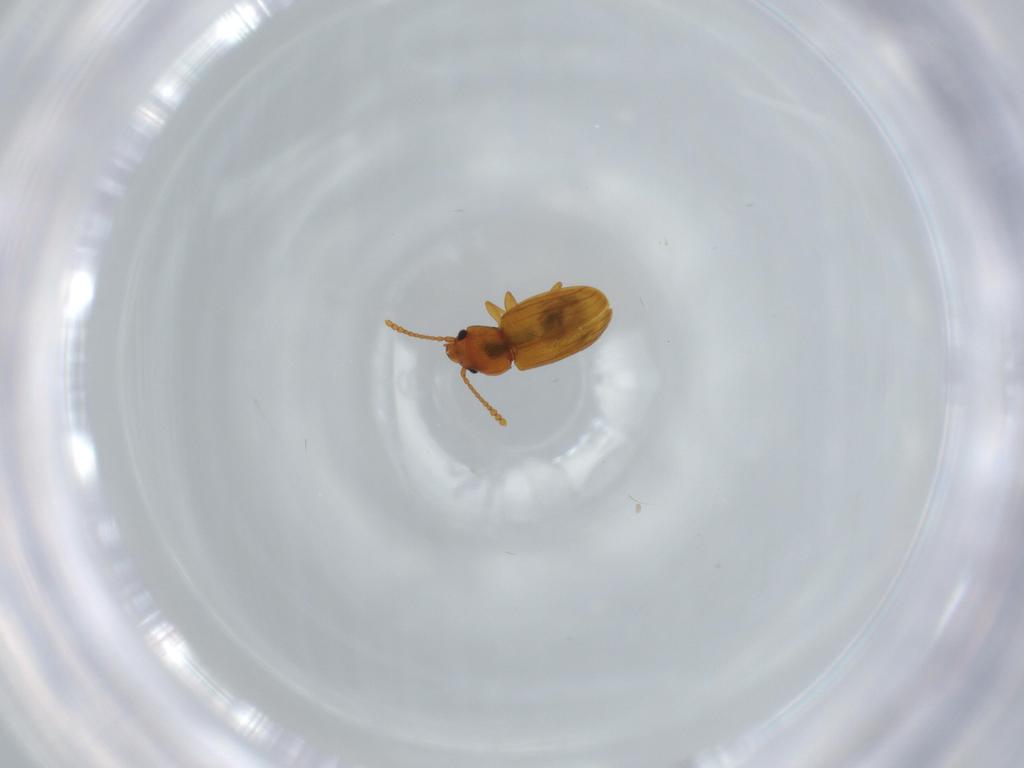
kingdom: Animalia
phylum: Arthropoda
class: Insecta
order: Coleoptera
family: Laemophloeidae
